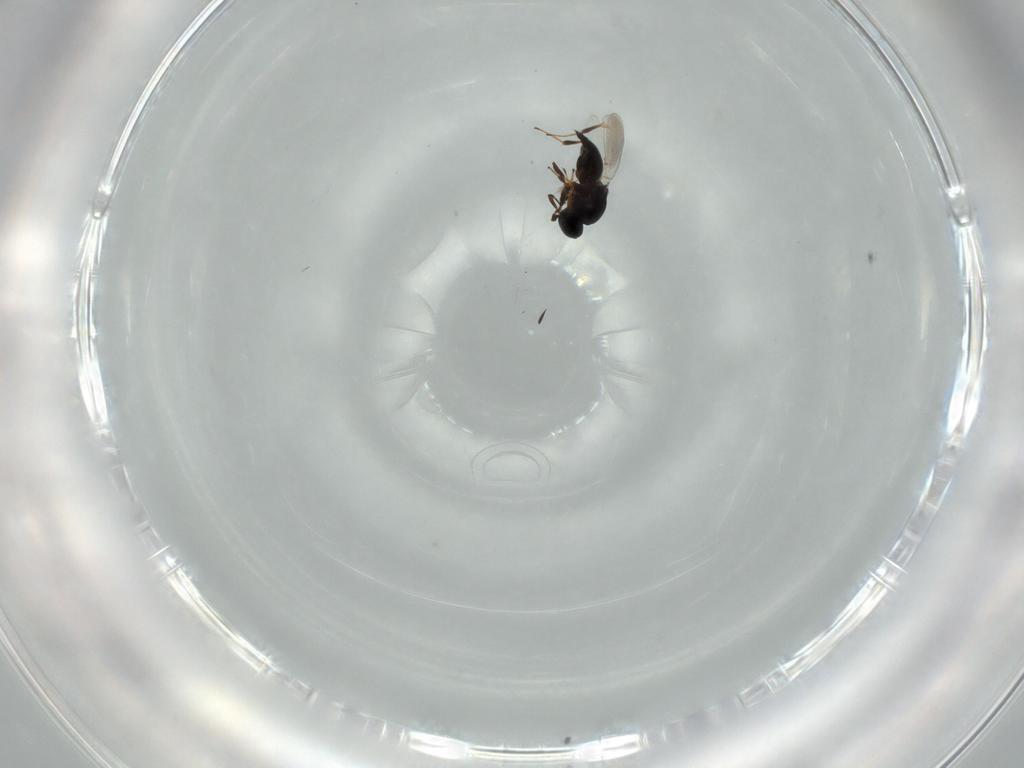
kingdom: Animalia
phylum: Arthropoda
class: Insecta
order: Hymenoptera
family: Platygastridae
